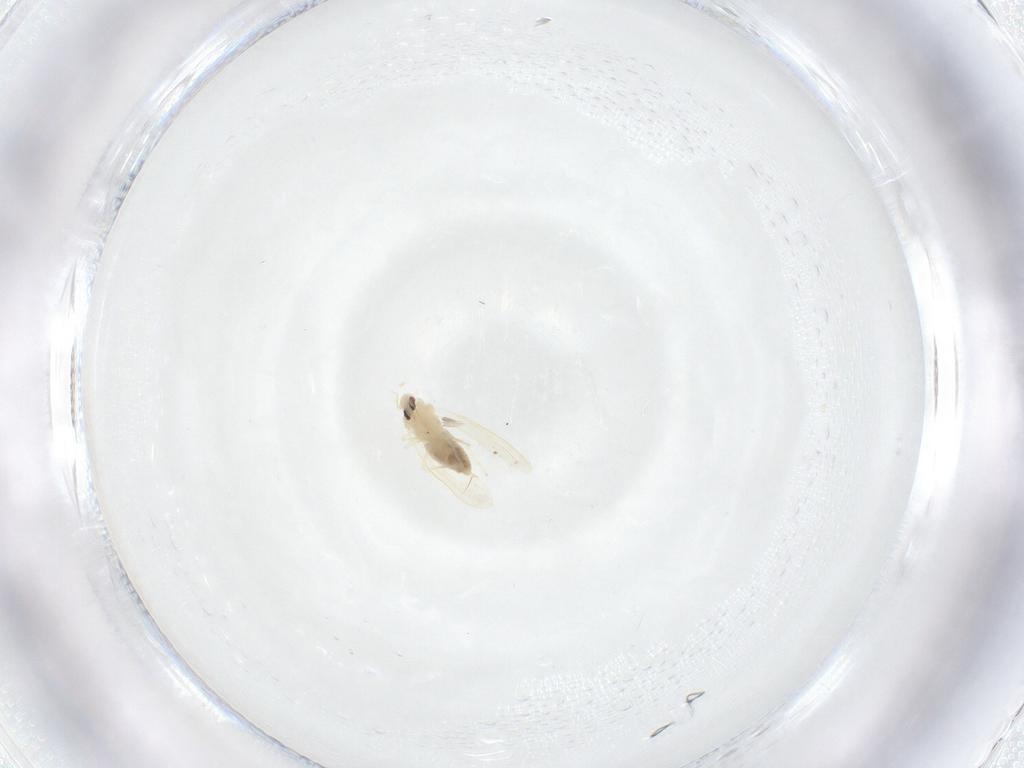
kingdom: Animalia
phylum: Arthropoda
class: Insecta
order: Hemiptera
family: Aleyrodidae
